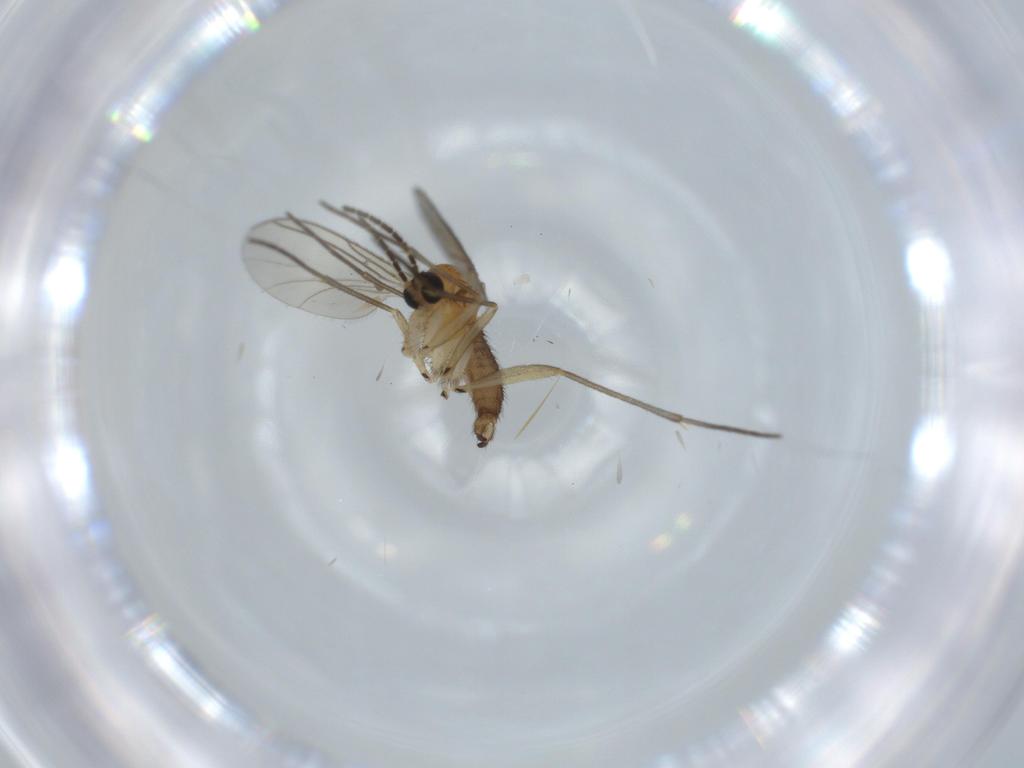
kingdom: Animalia
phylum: Arthropoda
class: Insecta
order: Diptera
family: Sciaridae
